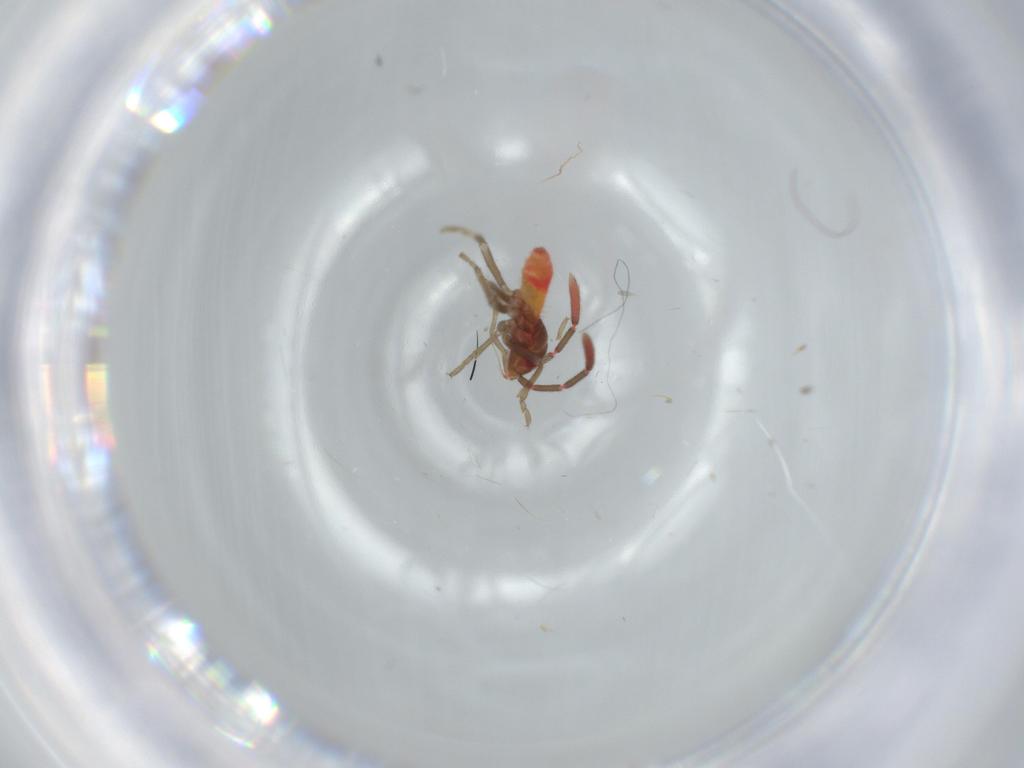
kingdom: Animalia
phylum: Arthropoda
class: Insecta
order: Hemiptera
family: Rhyparochromidae
